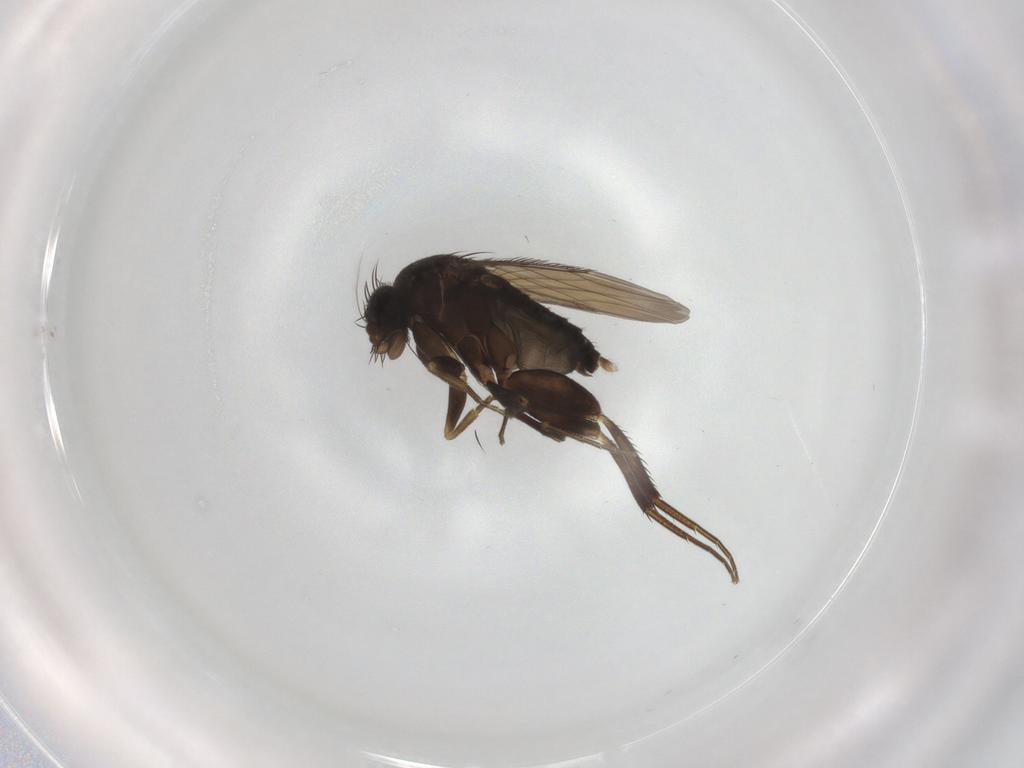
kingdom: Animalia
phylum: Arthropoda
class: Insecta
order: Diptera
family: Phoridae
